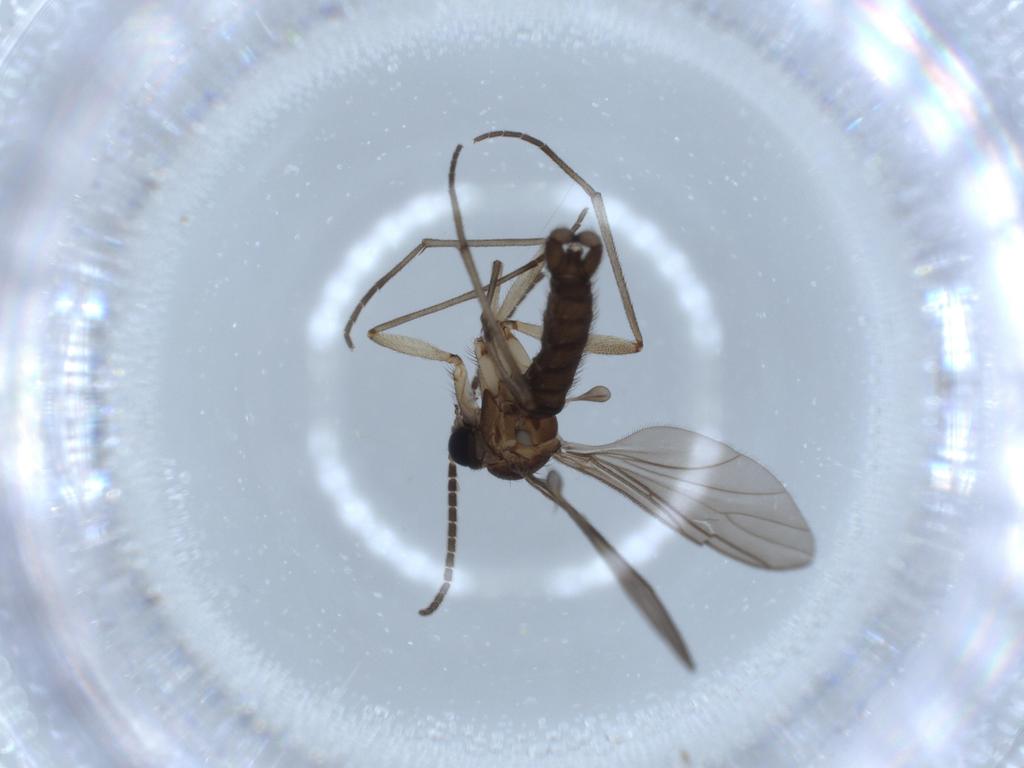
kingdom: Animalia
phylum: Arthropoda
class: Insecta
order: Diptera
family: Sciaridae
